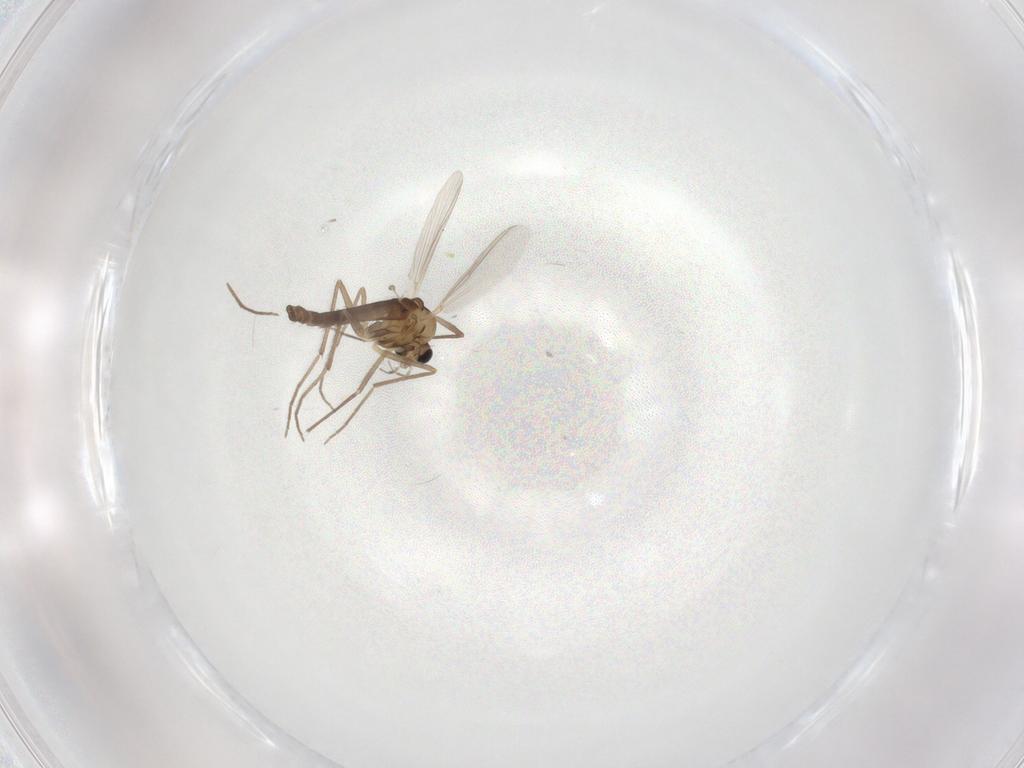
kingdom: Animalia
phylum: Arthropoda
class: Insecta
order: Diptera
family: Chironomidae
